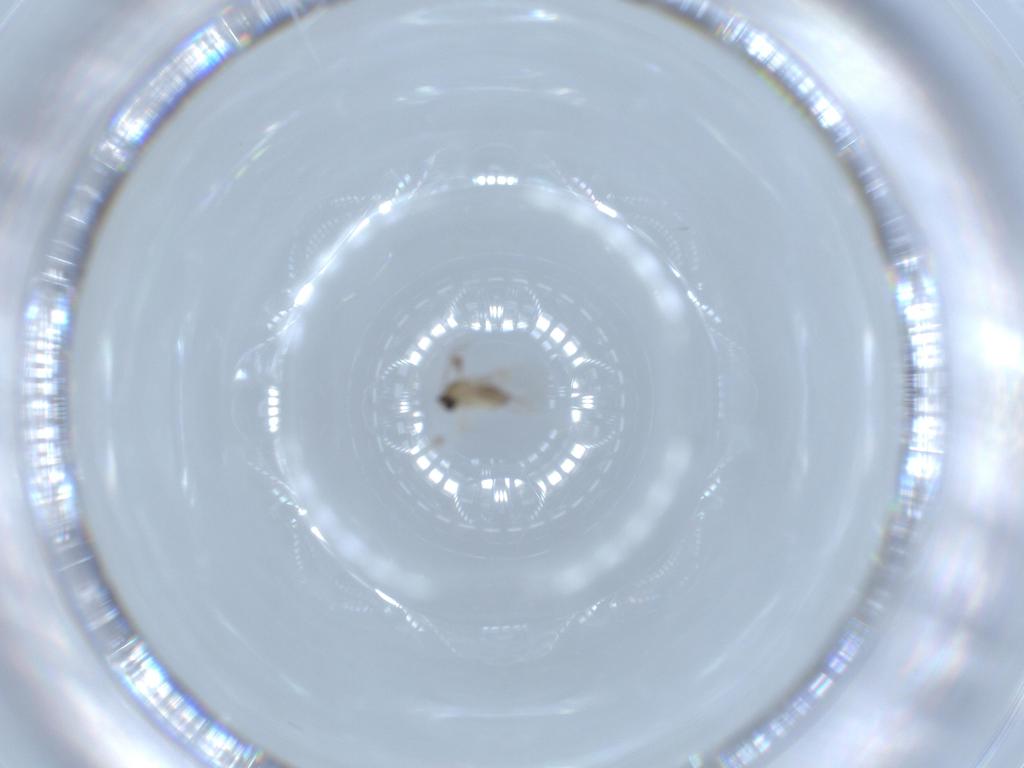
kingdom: Animalia
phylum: Arthropoda
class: Insecta
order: Diptera
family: Cecidomyiidae
